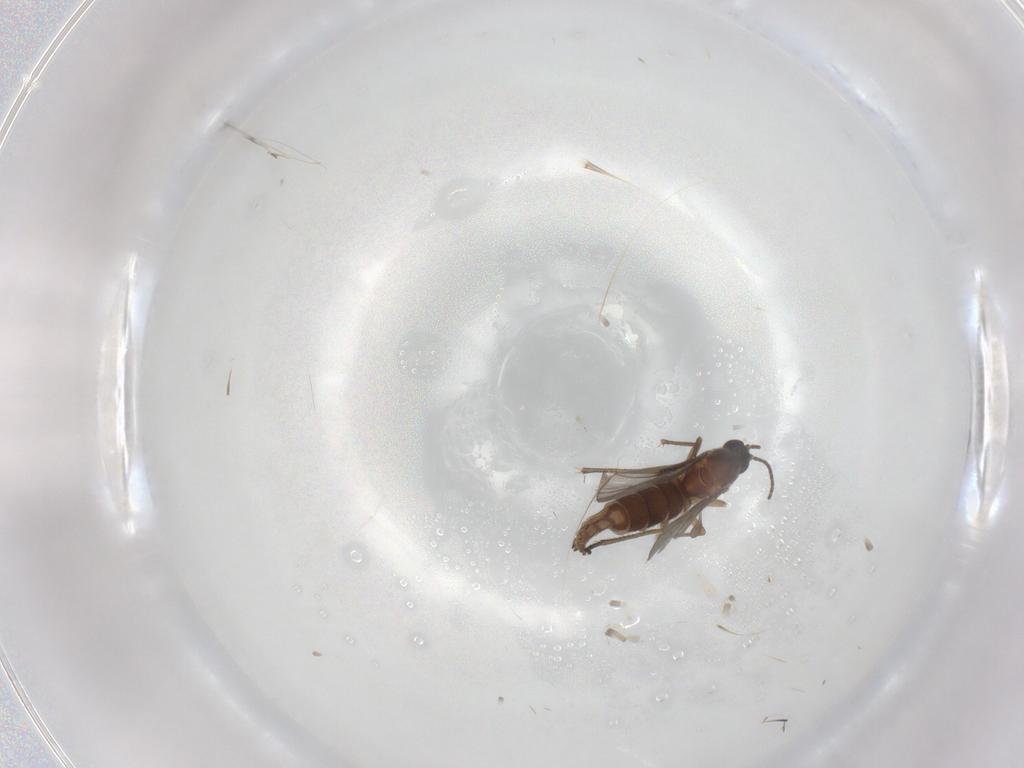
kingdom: Animalia
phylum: Arthropoda
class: Insecta
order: Diptera
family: Sciaridae
